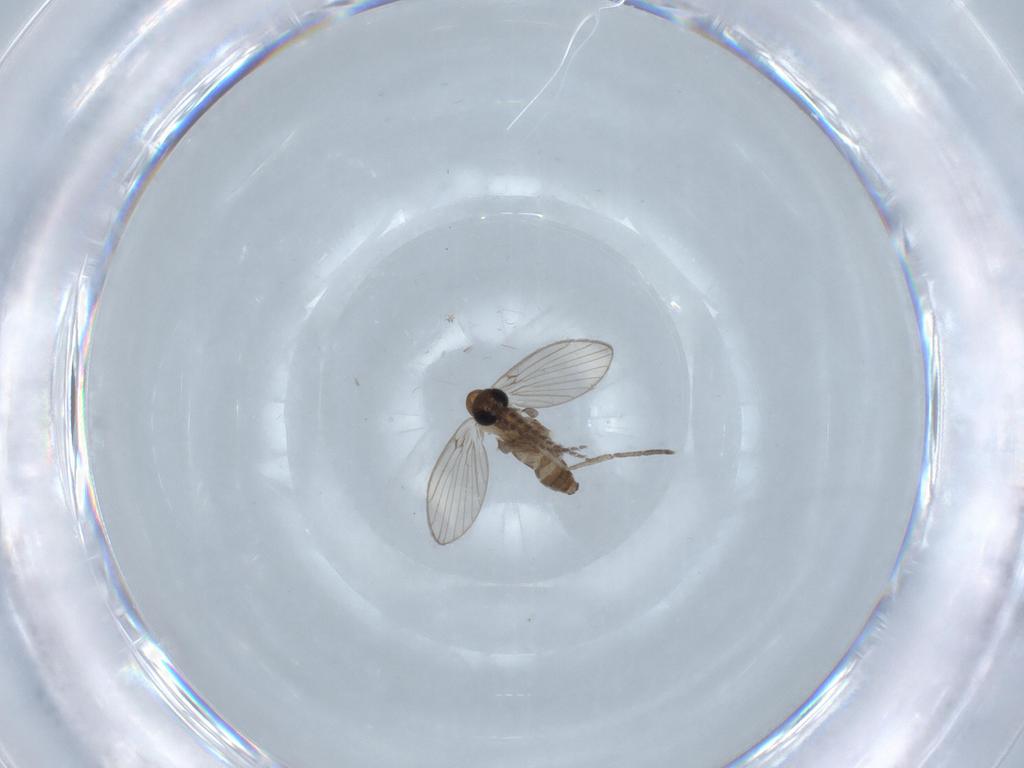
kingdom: Animalia
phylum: Arthropoda
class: Insecta
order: Diptera
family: Psychodidae
